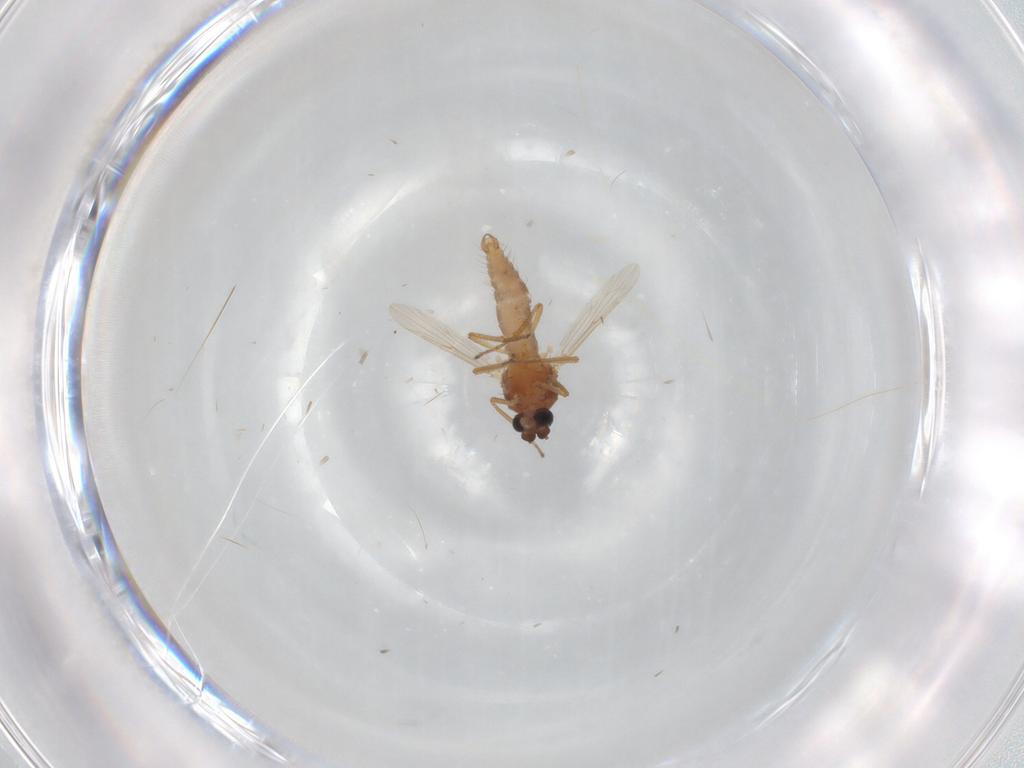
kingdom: Animalia
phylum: Arthropoda
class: Insecta
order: Diptera
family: Ceratopogonidae
